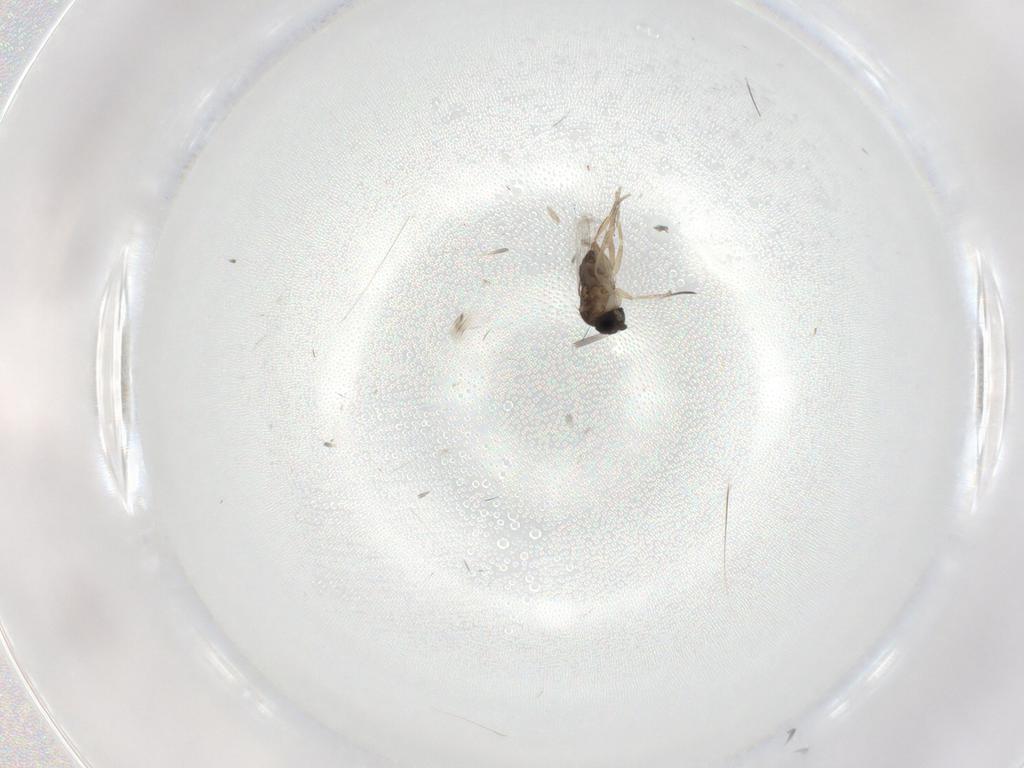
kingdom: Animalia
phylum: Arthropoda
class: Insecta
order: Diptera
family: Phoridae
